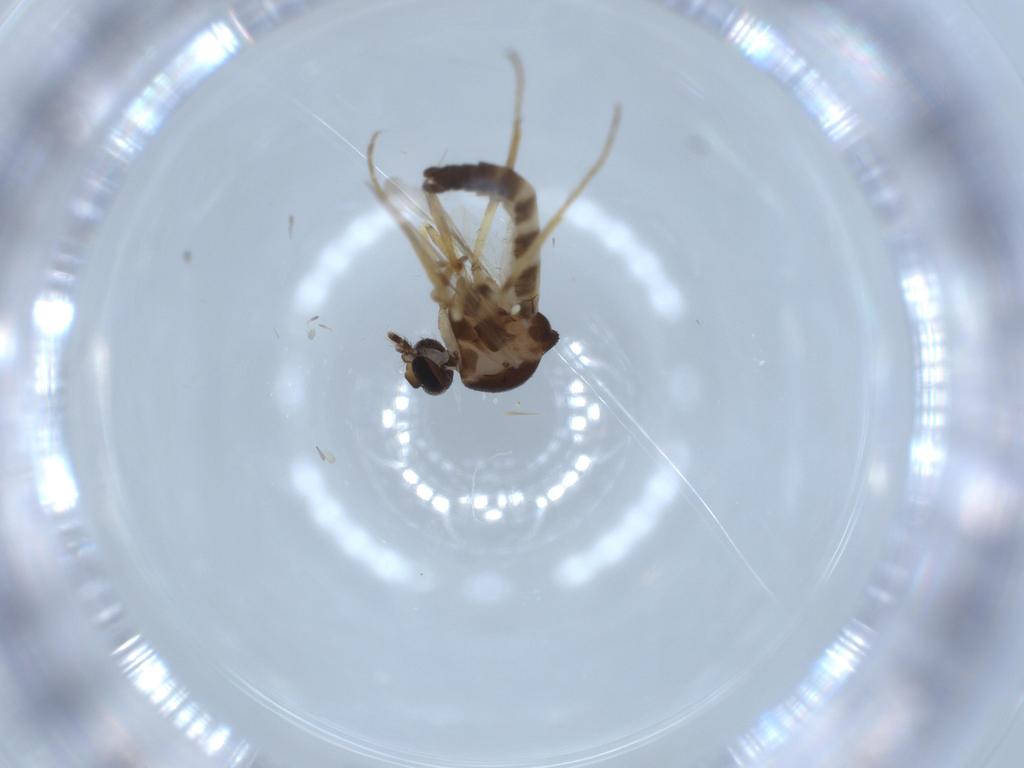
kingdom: Animalia
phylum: Arthropoda
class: Insecta
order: Diptera
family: Ceratopogonidae
